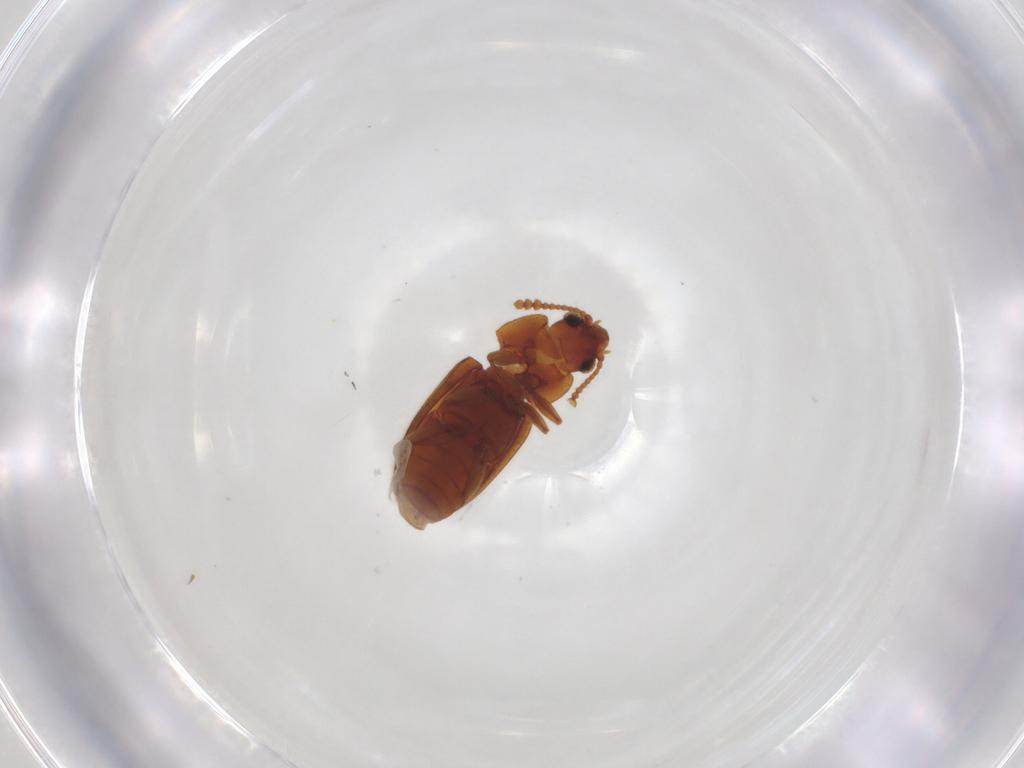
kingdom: Animalia
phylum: Arthropoda
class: Insecta
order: Coleoptera
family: Erotylidae
